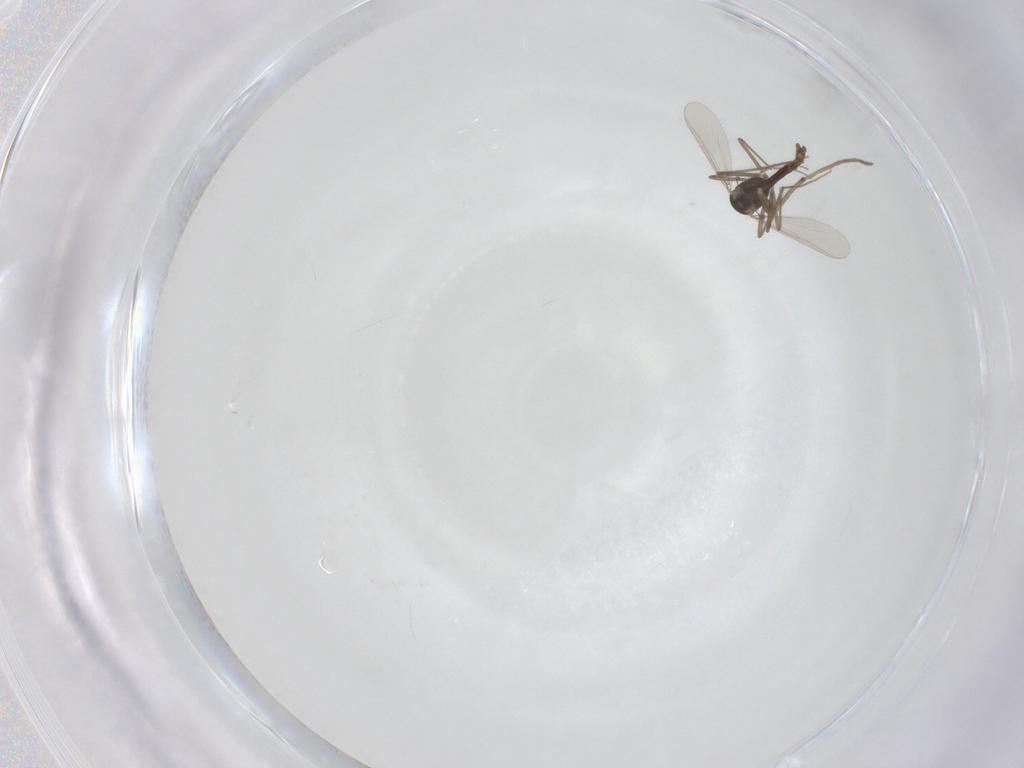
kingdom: Animalia
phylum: Arthropoda
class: Insecta
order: Diptera
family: Chironomidae
